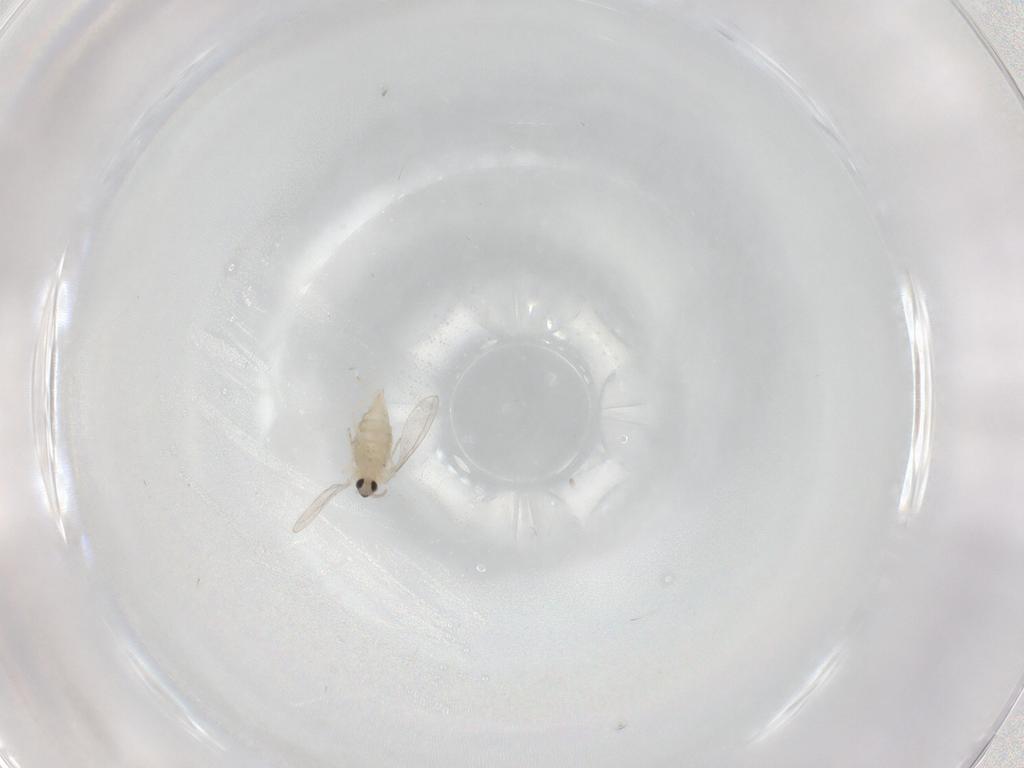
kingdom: Animalia
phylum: Arthropoda
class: Insecta
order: Diptera
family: Cecidomyiidae
